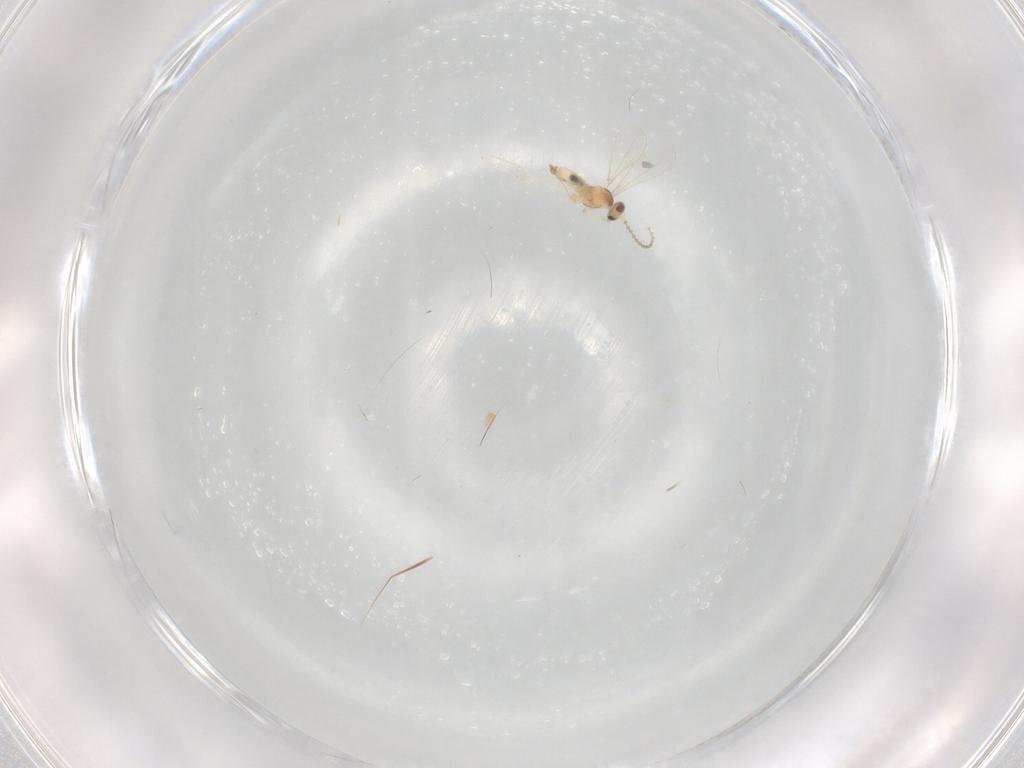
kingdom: Animalia
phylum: Arthropoda
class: Insecta
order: Diptera
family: Cecidomyiidae
